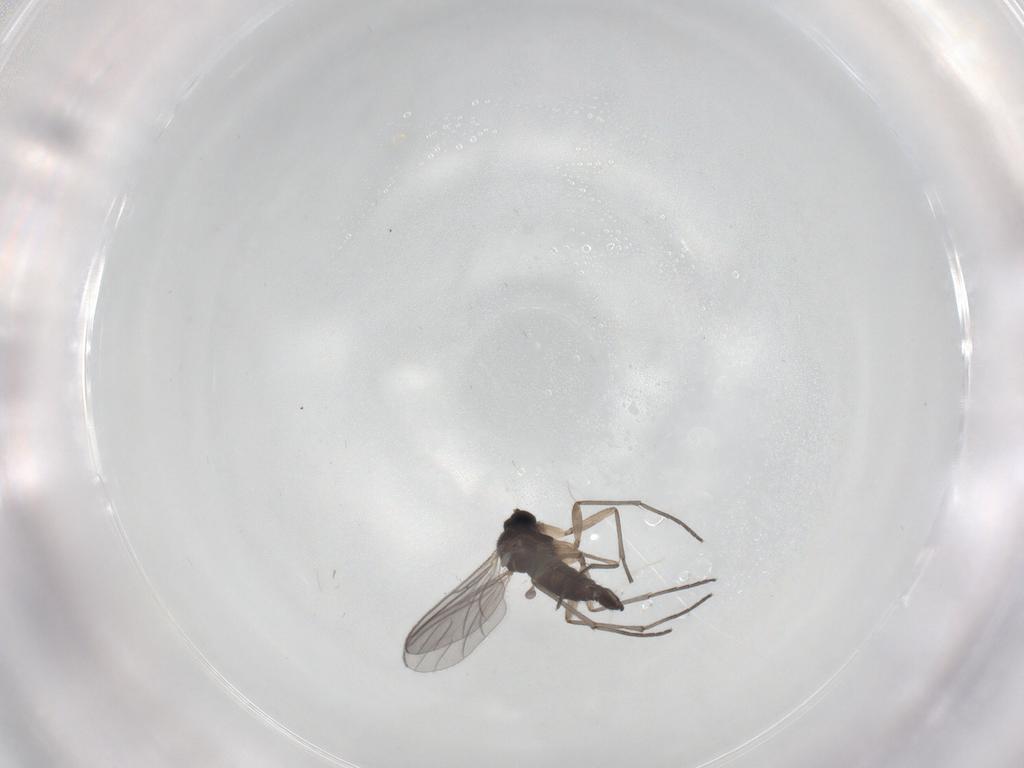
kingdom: Animalia
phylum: Arthropoda
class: Insecta
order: Diptera
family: Sciaridae
